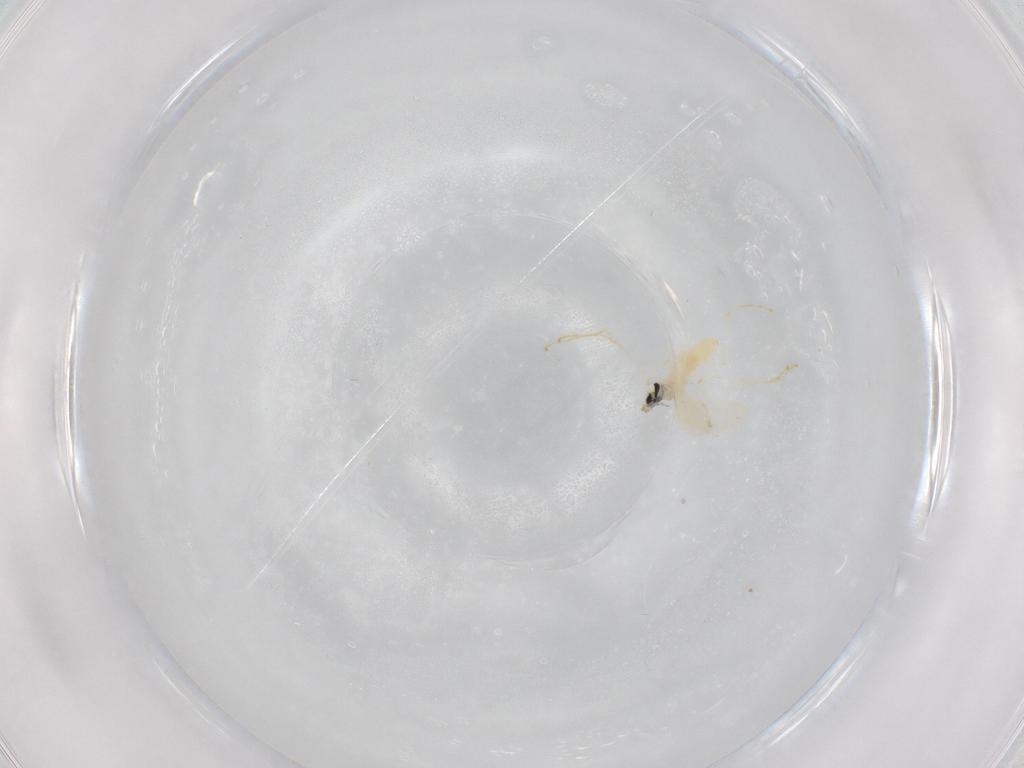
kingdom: Animalia
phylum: Arthropoda
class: Insecta
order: Diptera
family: Cecidomyiidae
